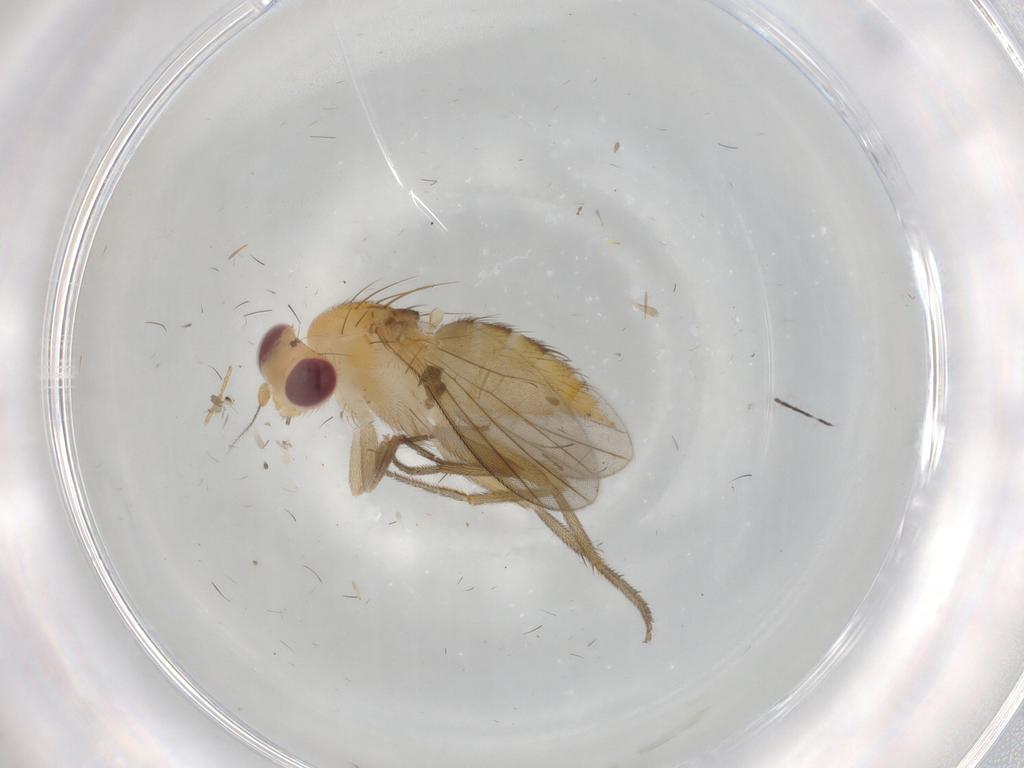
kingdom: Animalia
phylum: Arthropoda
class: Insecta
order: Diptera
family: Clusiidae
